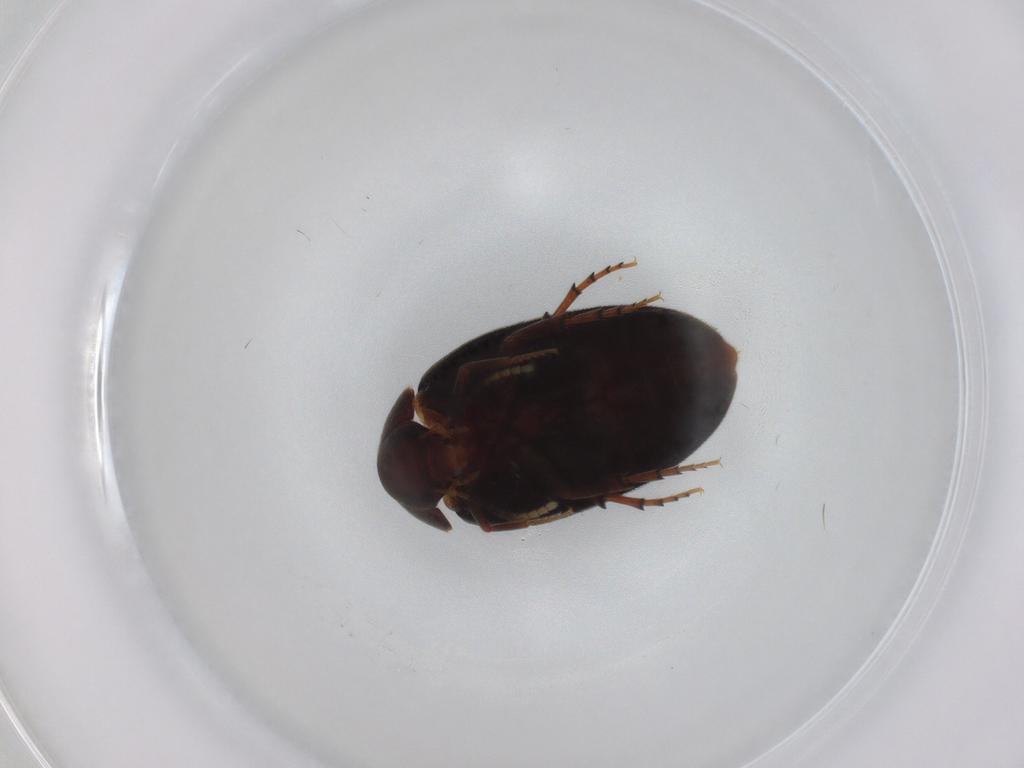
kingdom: Animalia
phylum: Arthropoda
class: Insecta
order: Coleoptera
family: Eucinetidae
